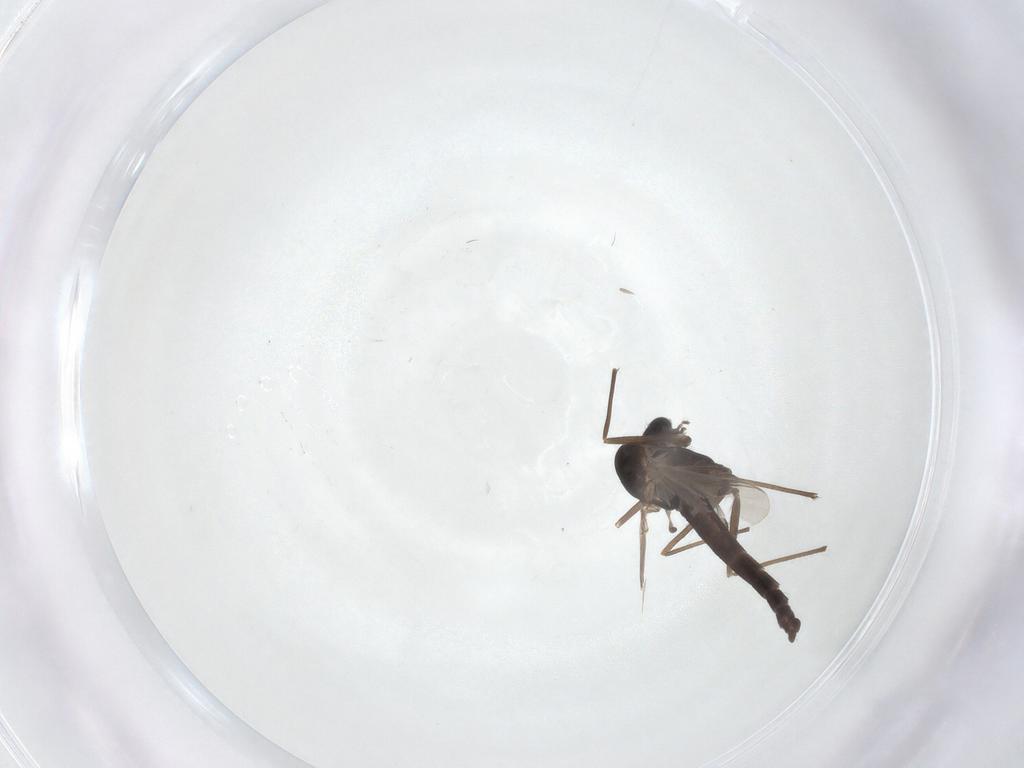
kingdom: Animalia
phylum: Arthropoda
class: Insecta
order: Diptera
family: Chironomidae
